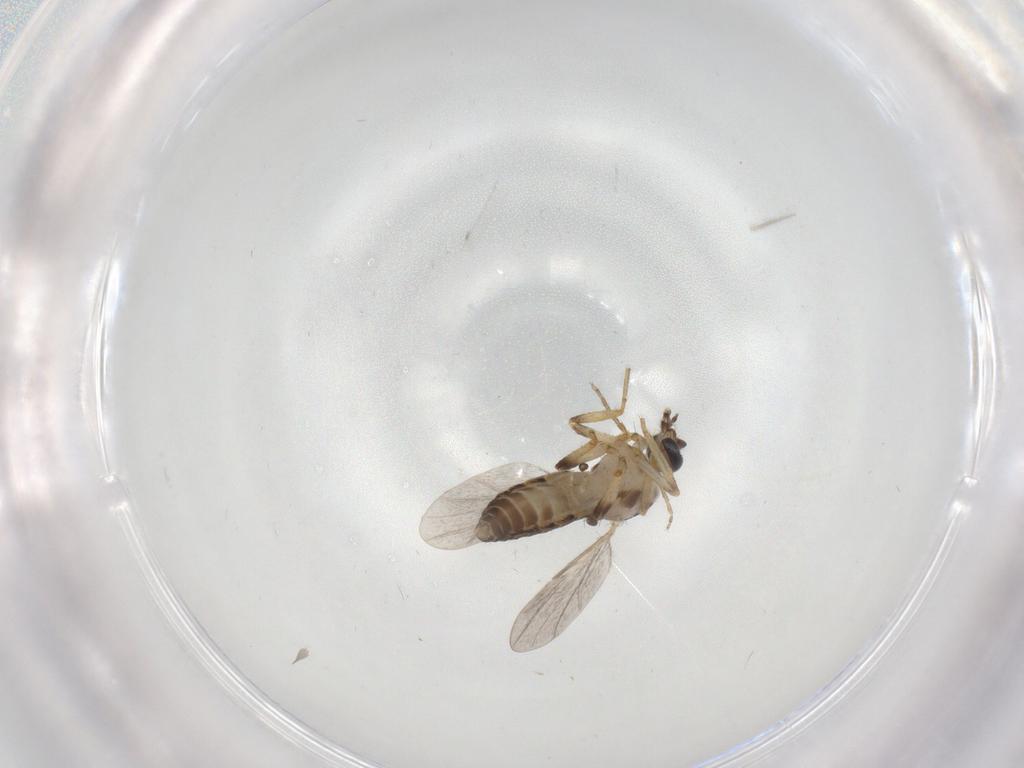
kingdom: Animalia
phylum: Arthropoda
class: Insecta
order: Diptera
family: Ceratopogonidae
